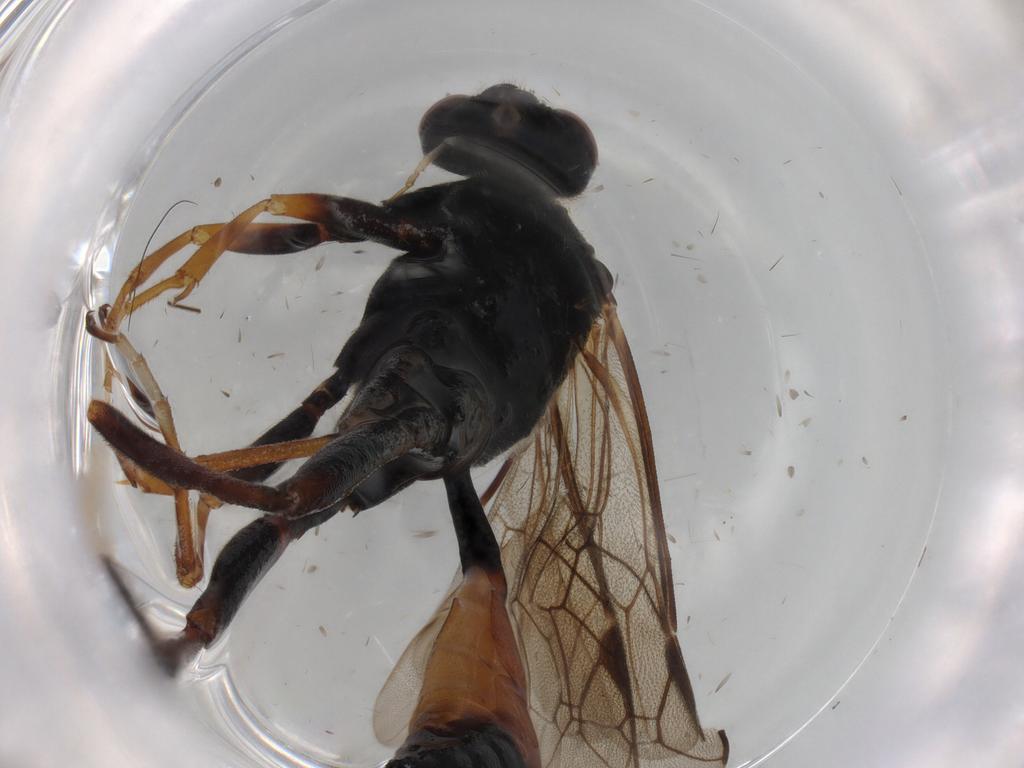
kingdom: Animalia
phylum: Arthropoda
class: Insecta
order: Hymenoptera
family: Ichneumonidae
